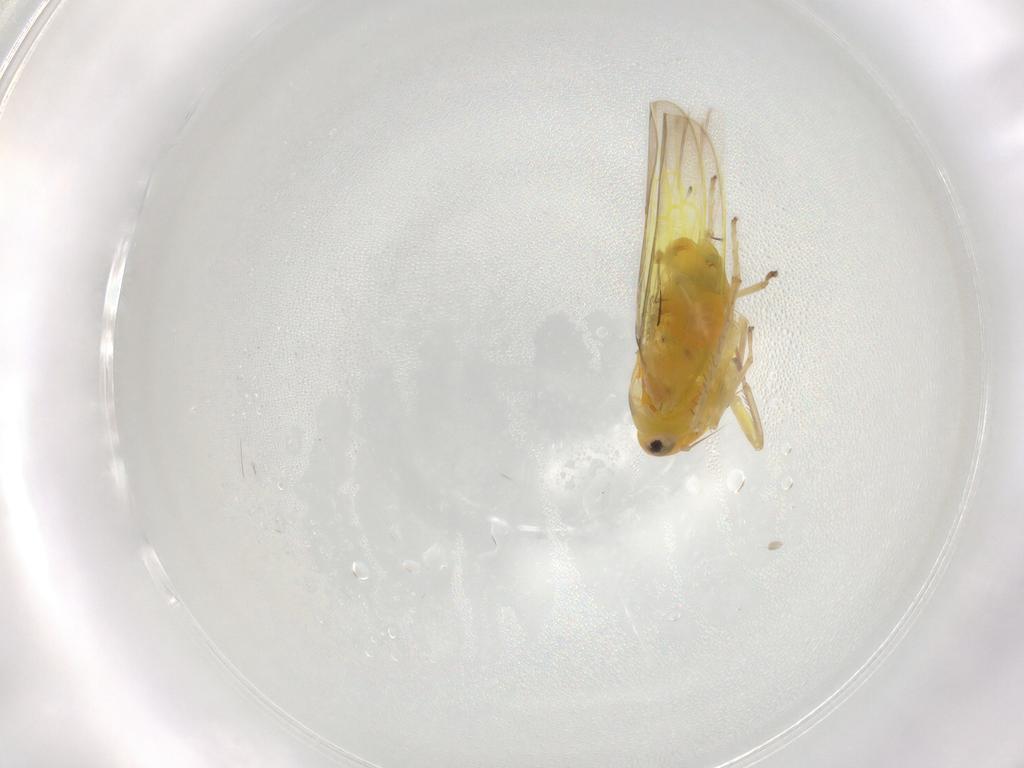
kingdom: Animalia
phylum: Arthropoda
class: Insecta
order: Hemiptera
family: Cicadellidae
